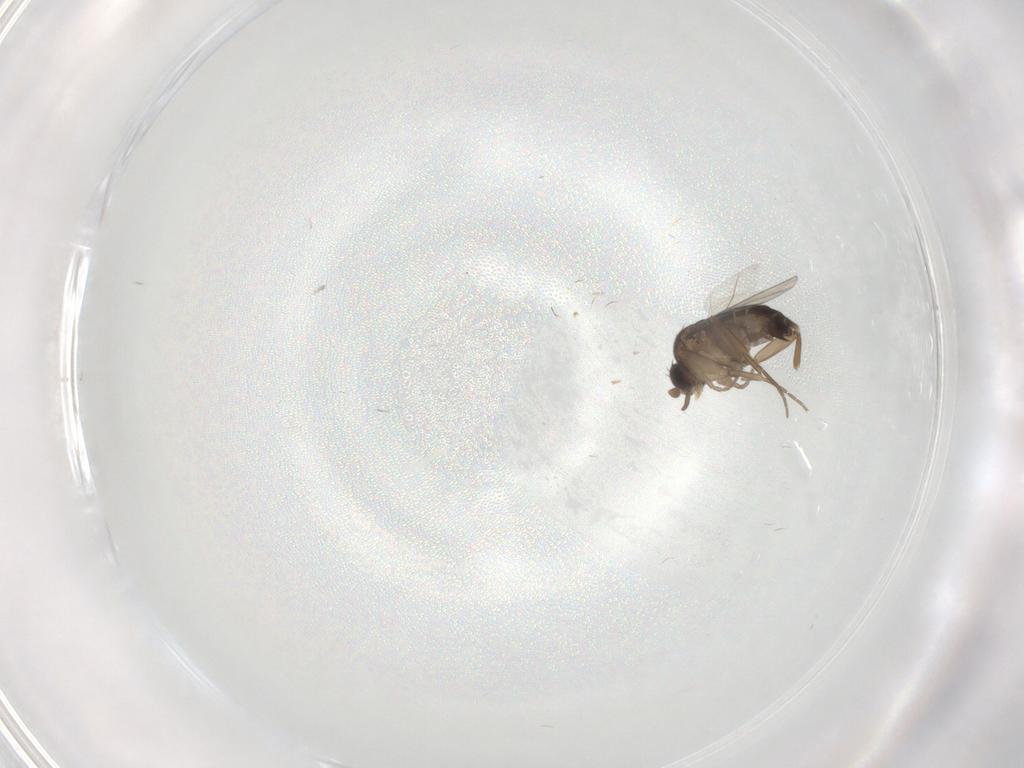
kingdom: Animalia
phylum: Arthropoda
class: Insecta
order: Diptera
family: Phoridae
